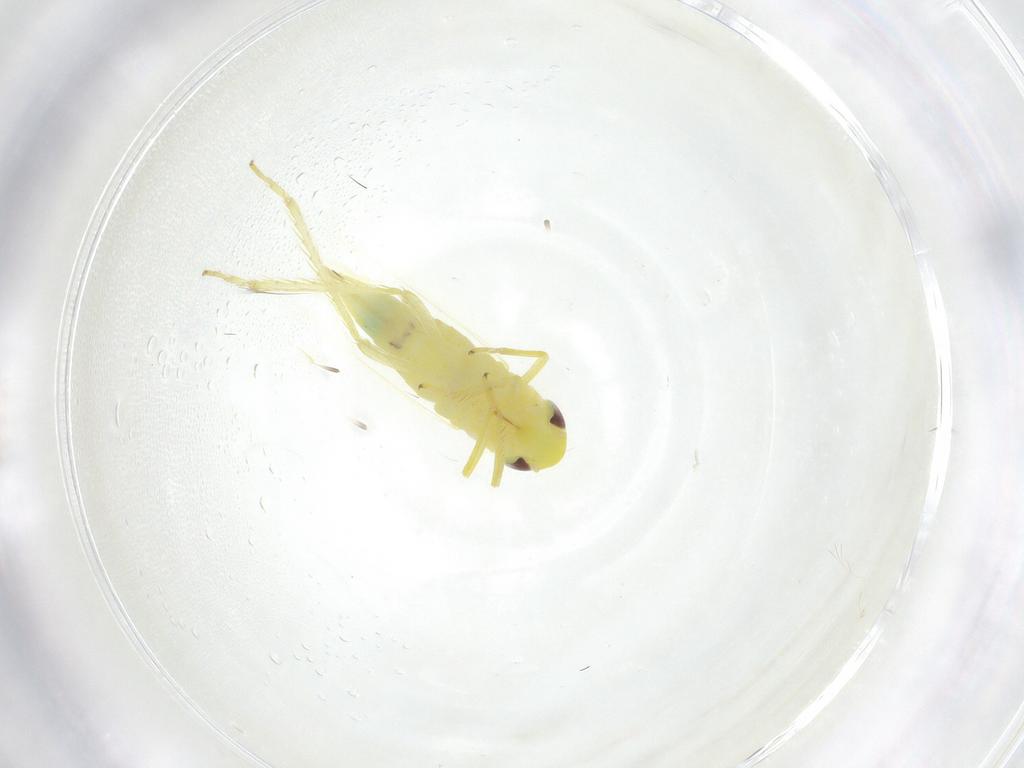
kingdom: Animalia
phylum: Arthropoda
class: Insecta
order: Hemiptera
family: Cicadellidae
